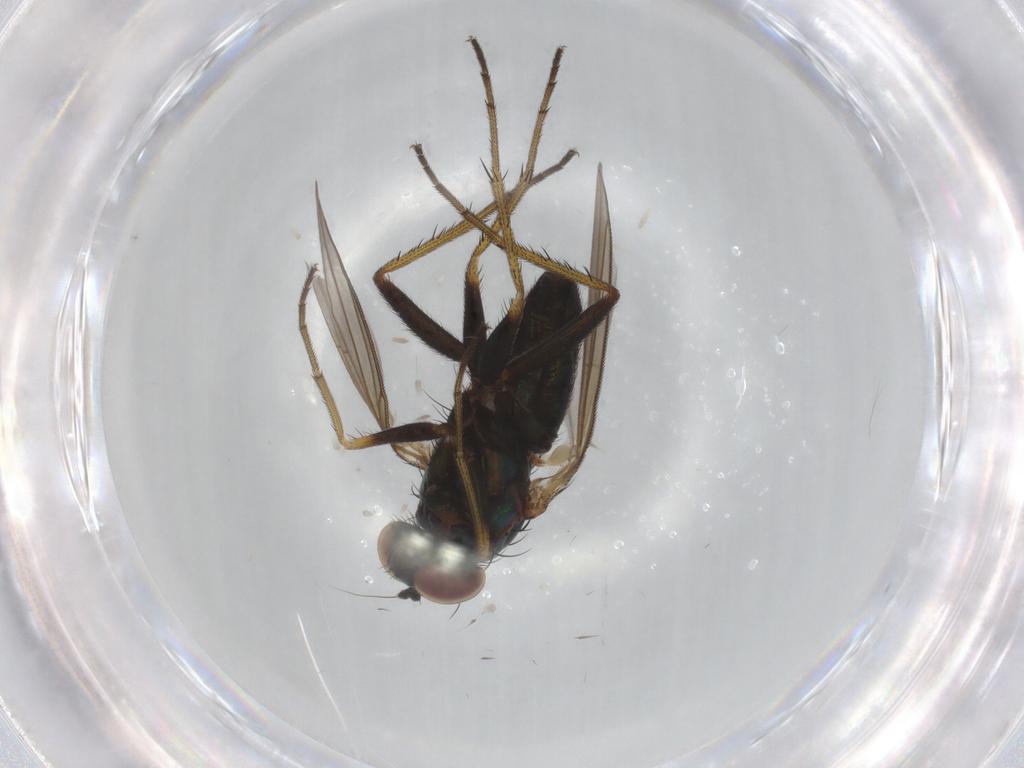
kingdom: Animalia
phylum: Arthropoda
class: Insecta
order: Diptera
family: Dolichopodidae
